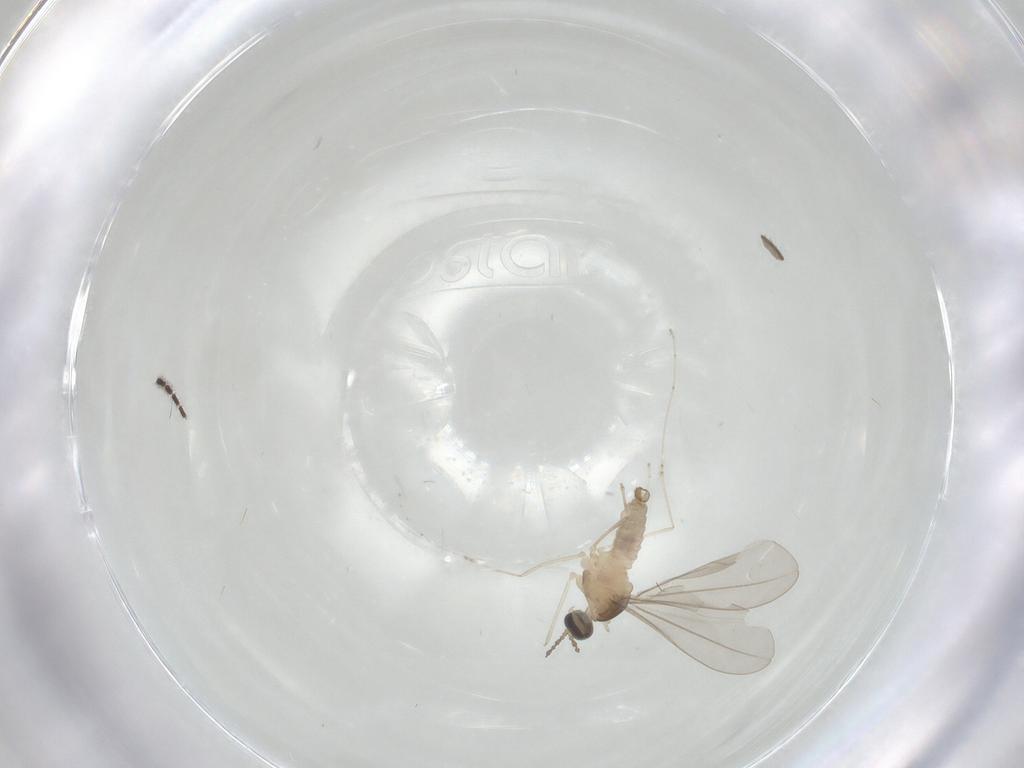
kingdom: Animalia
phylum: Arthropoda
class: Insecta
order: Diptera
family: Sciaridae
